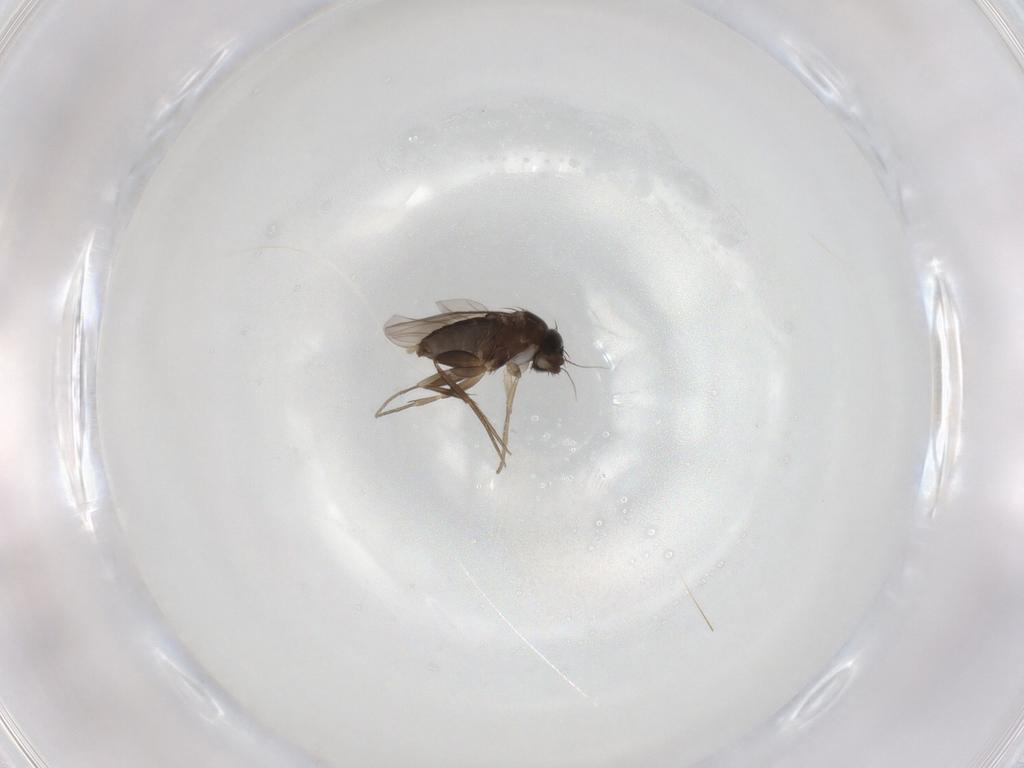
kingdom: Animalia
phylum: Arthropoda
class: Insecta
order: Diptera
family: Phoridae
